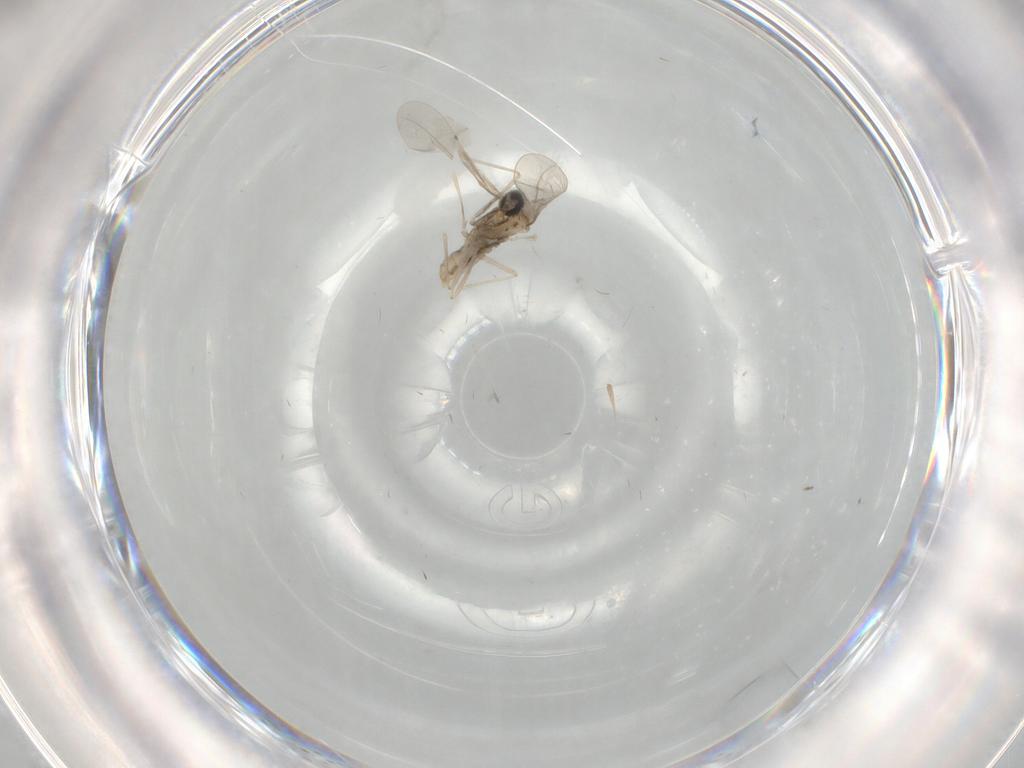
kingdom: Animalia
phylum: Arthropoda
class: Insecta
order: Diptera
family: Cecidomyiidae
